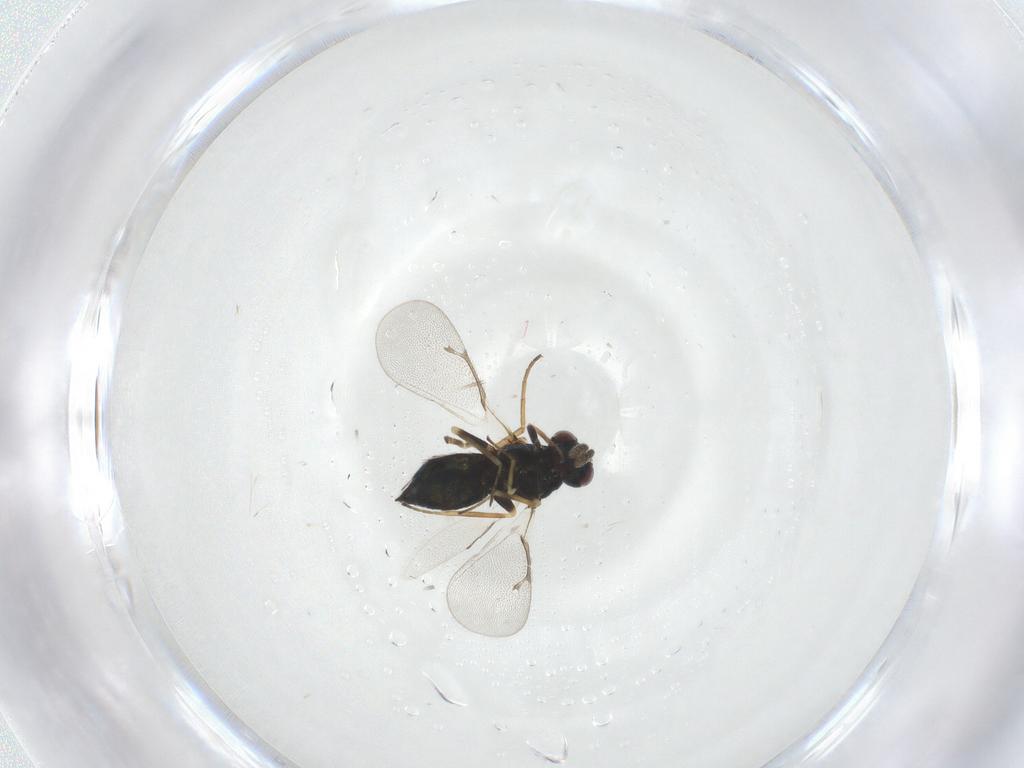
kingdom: Animalia
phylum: Arthropoda
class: Insecta
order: Hymenoptera
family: Eulophidae
